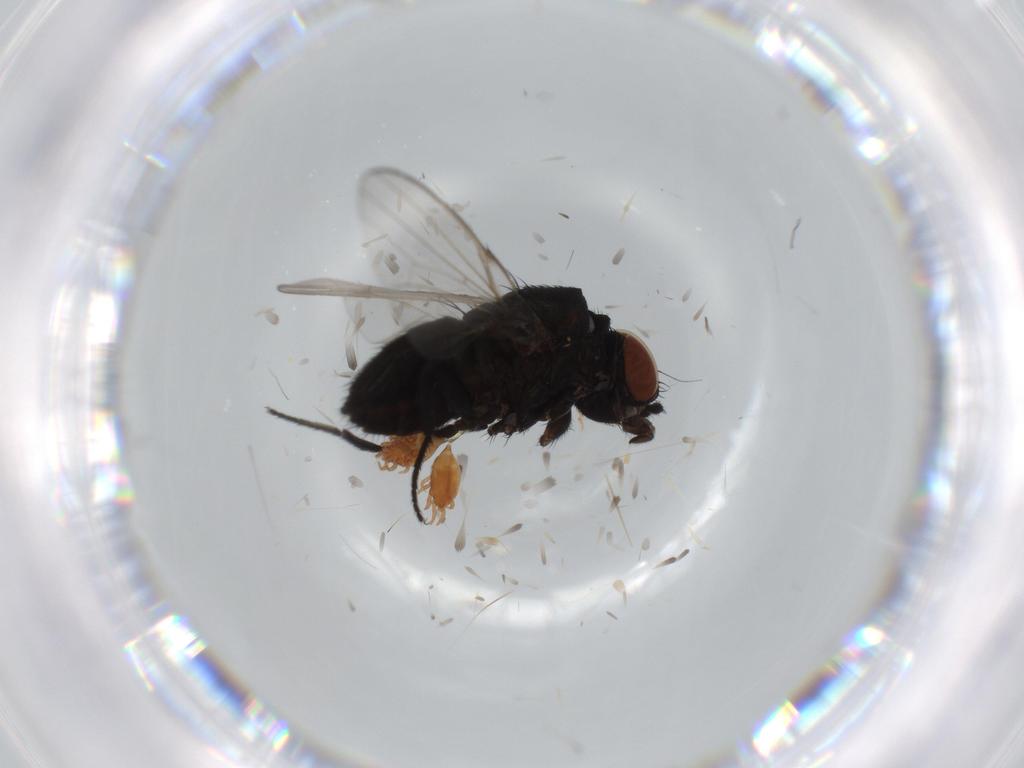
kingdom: Animalia
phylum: Arthropoda
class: Insecta
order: Diptera
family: Milichiidae
